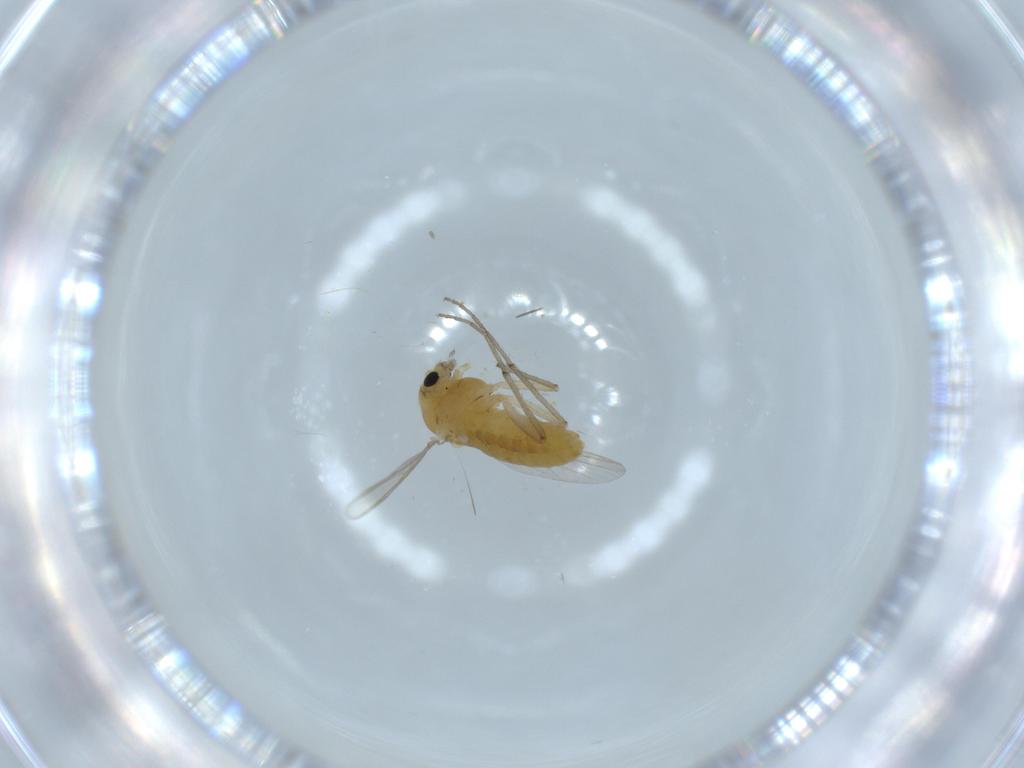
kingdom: Animalia
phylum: Arthropoda
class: Insecta
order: Diptera
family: Chironomidae
